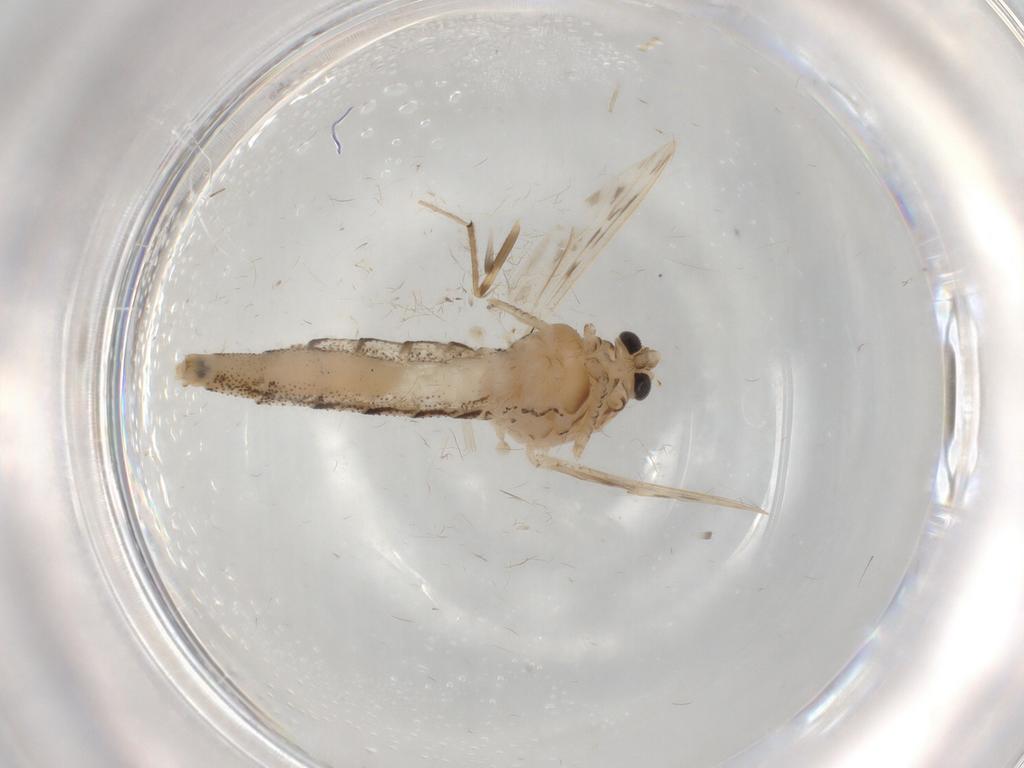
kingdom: Animalia
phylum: Arthropoda
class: Insecta
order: Diptera
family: Chaoboridae
